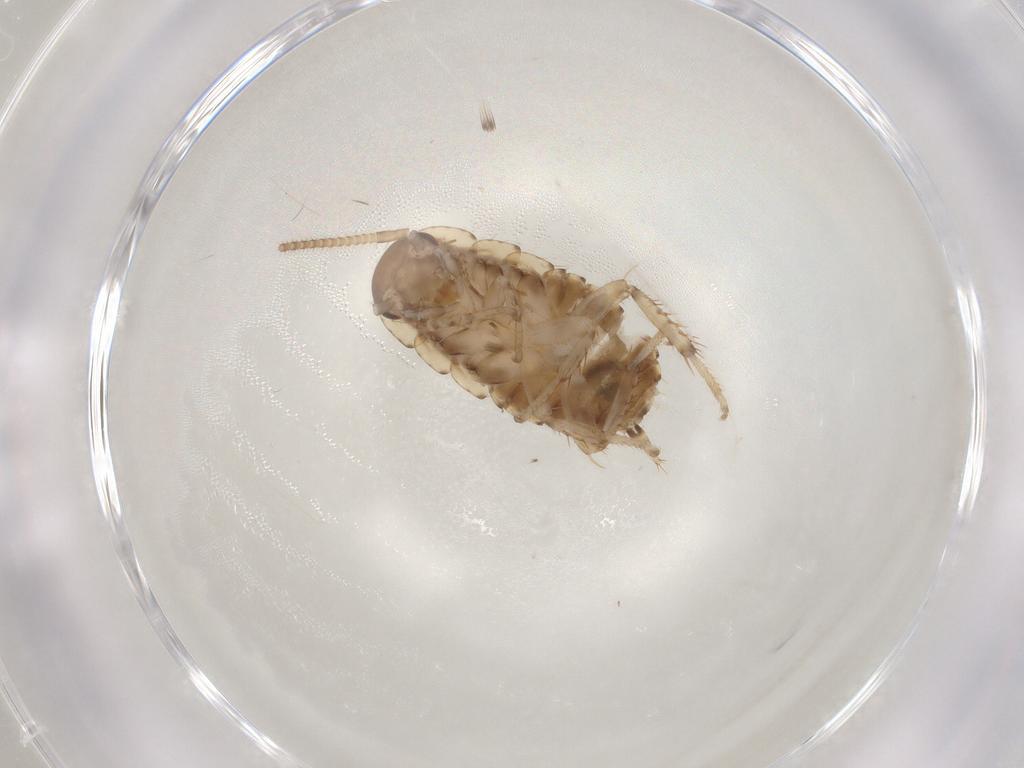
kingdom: Animalia
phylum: Arthropoda
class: Insecta
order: Blattodea
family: Blaberidae
